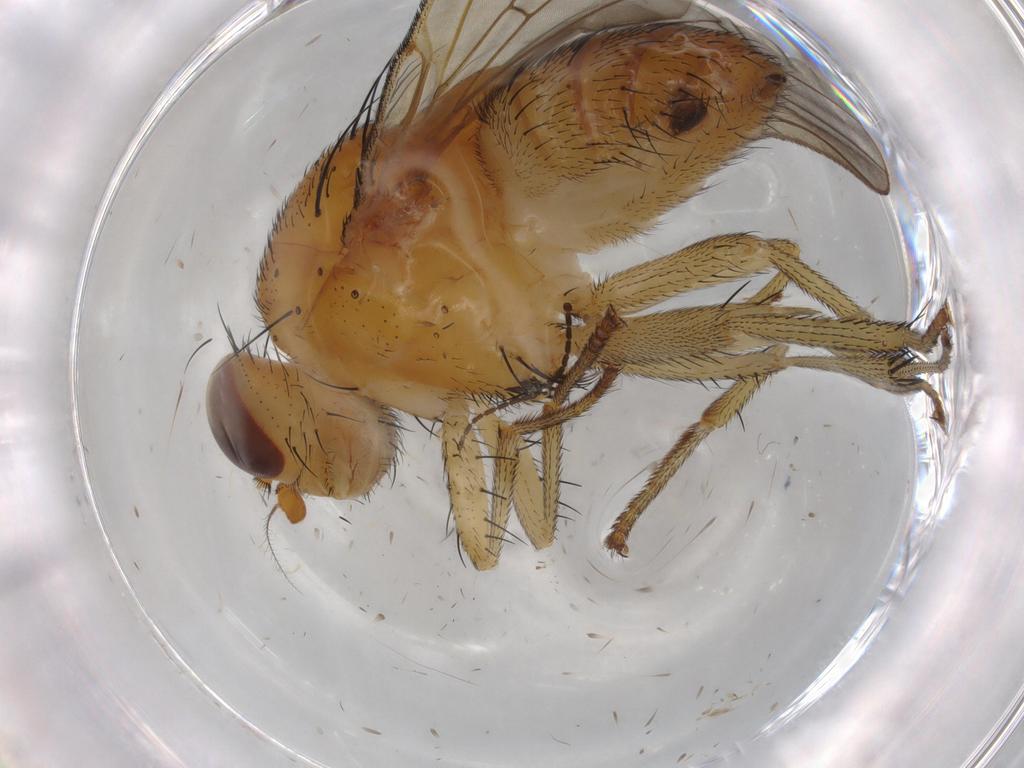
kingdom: Animalia
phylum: Arthropoda
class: Insecta
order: Diptera
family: Cecidomyiidae
